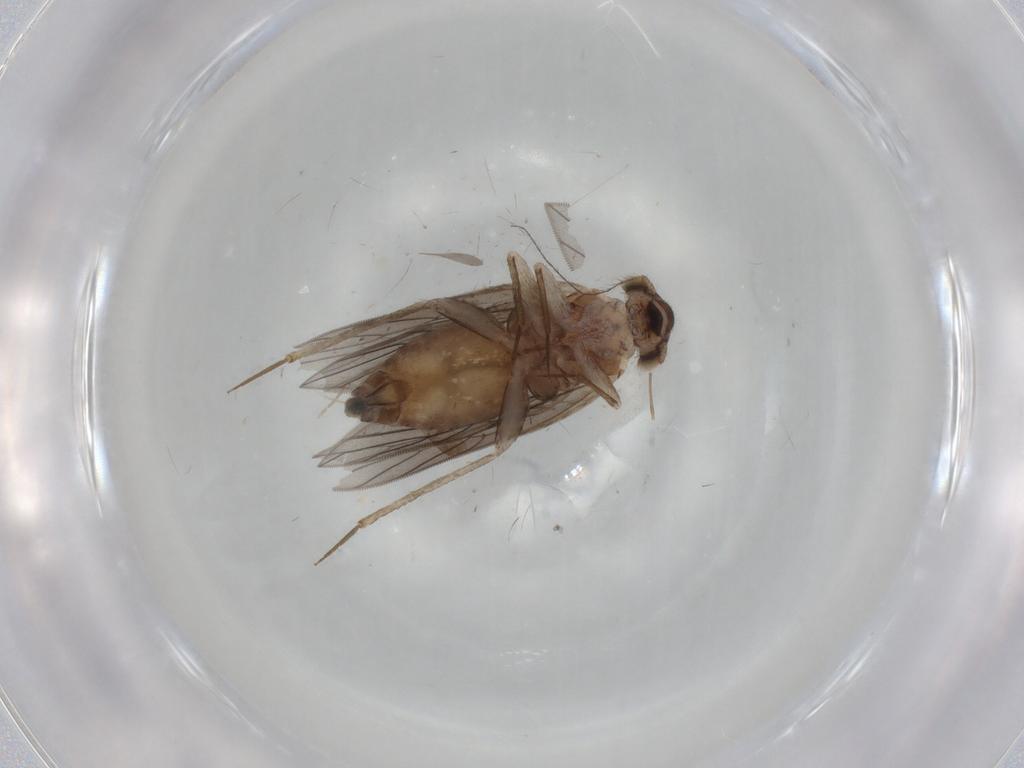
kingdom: Animalia
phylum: Arthropoda
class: Insecta
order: Psocodea
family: Lepidopsocidae
